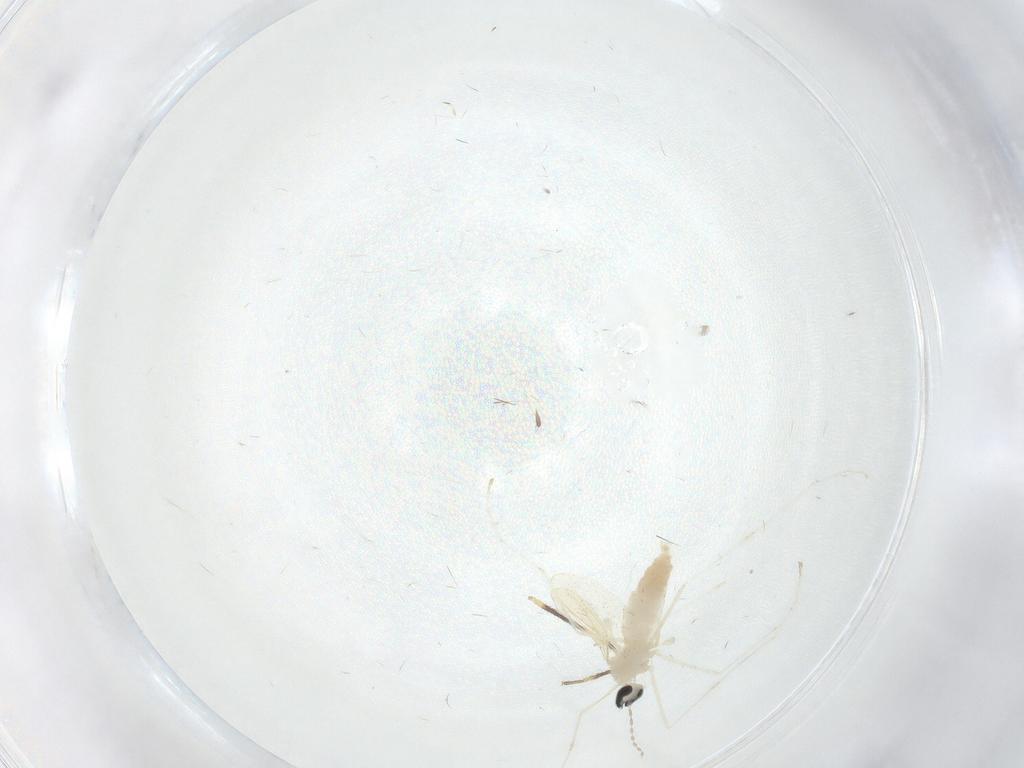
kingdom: Animalia
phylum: Arthropoda
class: Insecta
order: Diptera
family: Cecidomyiidae
